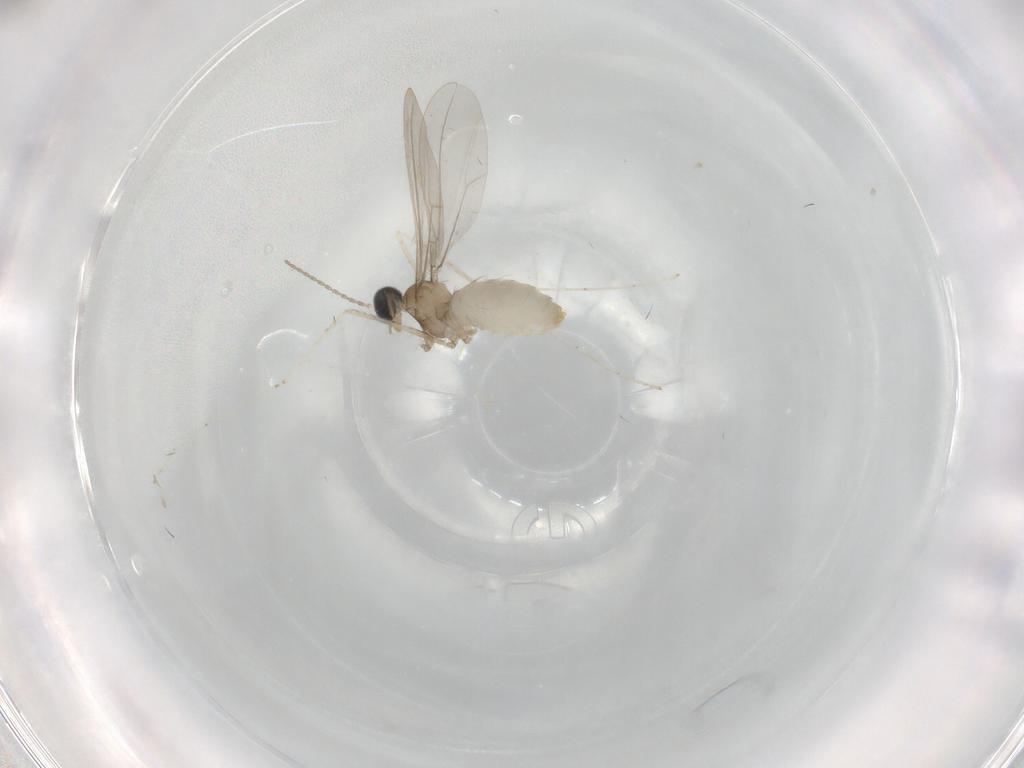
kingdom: Animalia
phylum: Arthropoda
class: Insecta
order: Diptera
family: Cecidomyiidae
